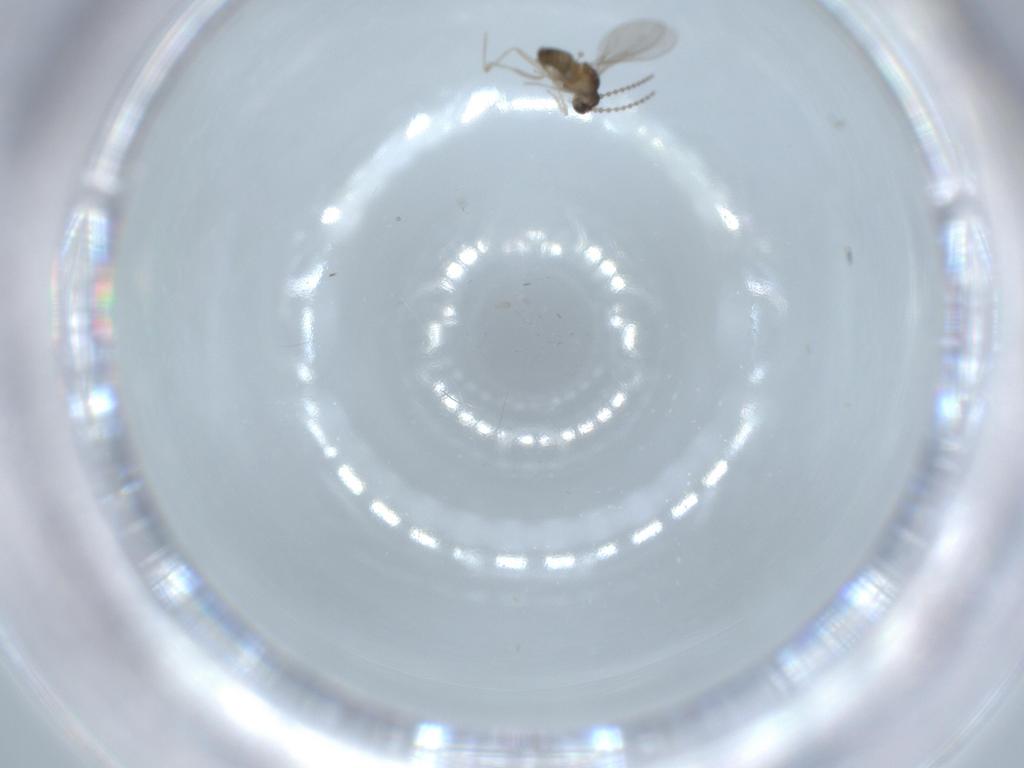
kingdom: Animalia
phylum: Arthropoda
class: Insecta
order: Diptera
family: Cecidomyiidae
